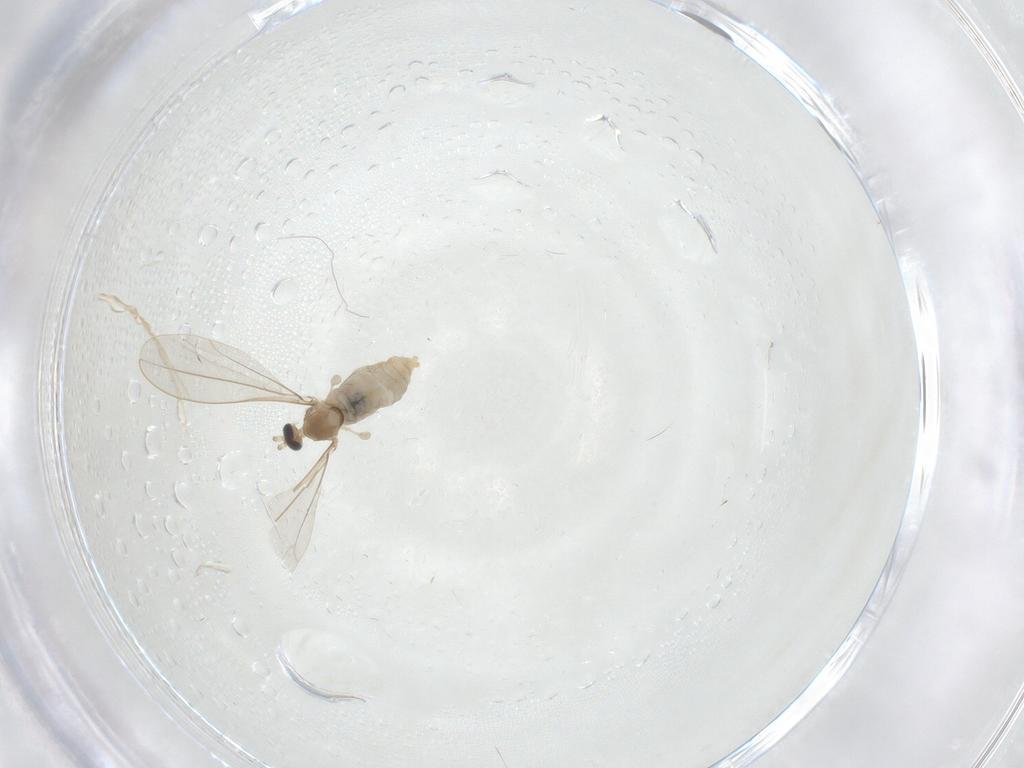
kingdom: Animalia
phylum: Arthropoda
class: Insecta
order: Diptera
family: Cecidomyiidae
